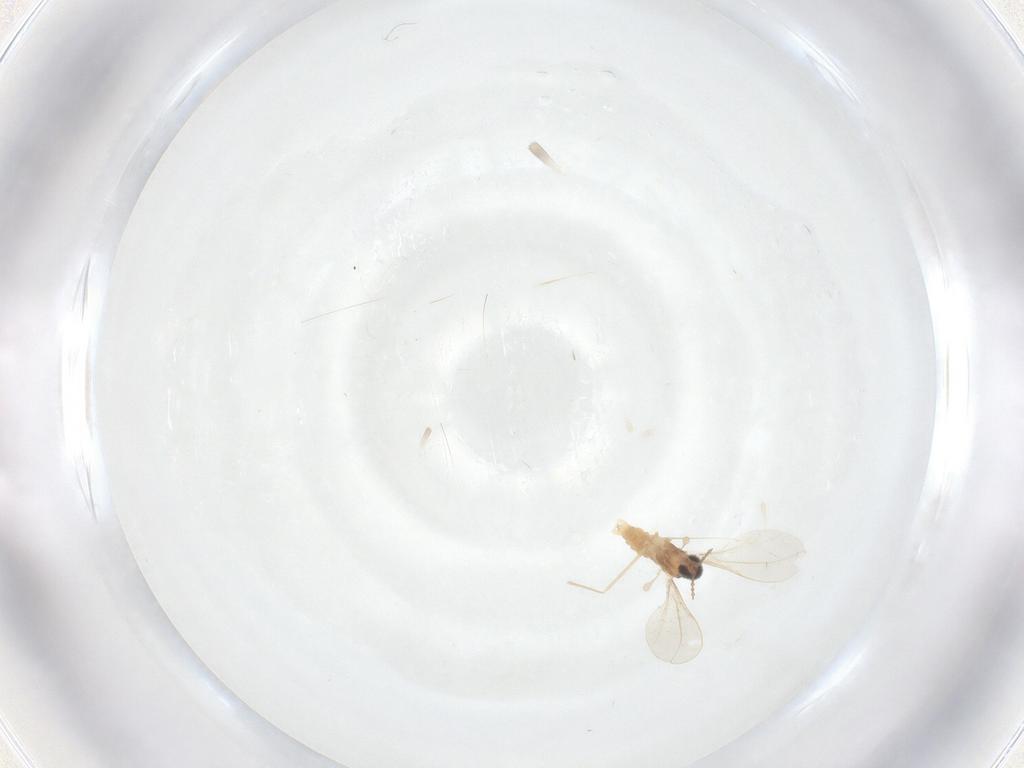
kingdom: Animalia
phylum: Arthropoda
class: Insecta
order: Diptera
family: Cecidomyiidae
